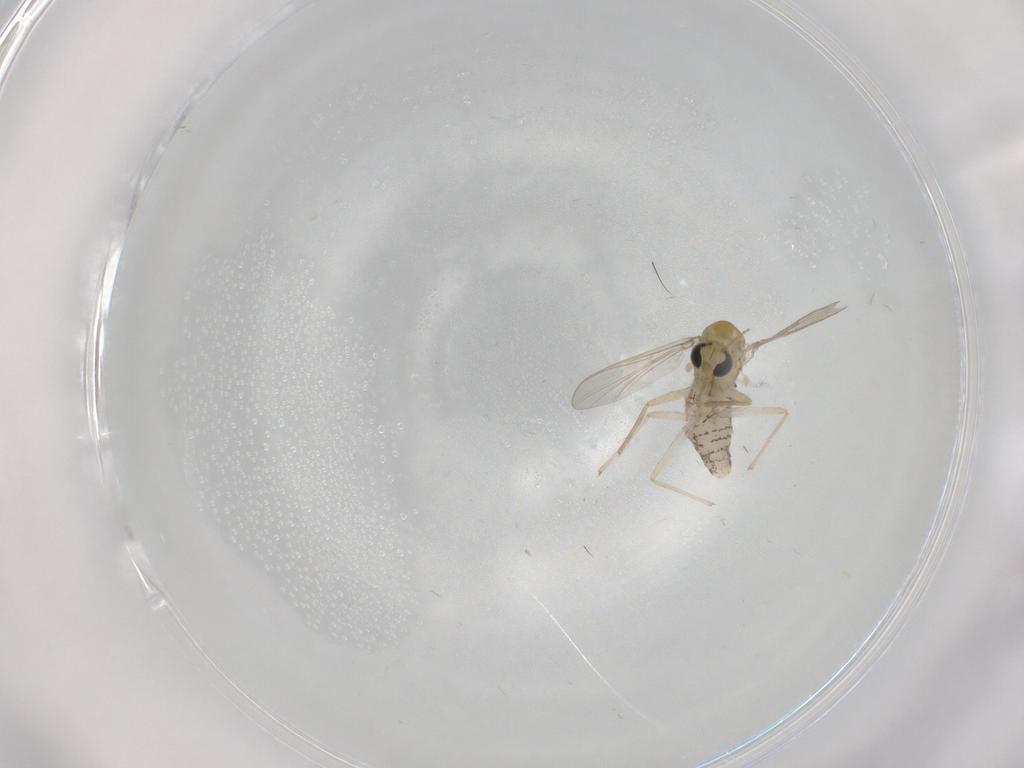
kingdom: Animalia
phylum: Arthropoda
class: Insecta
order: Diptera
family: Chironomidae
